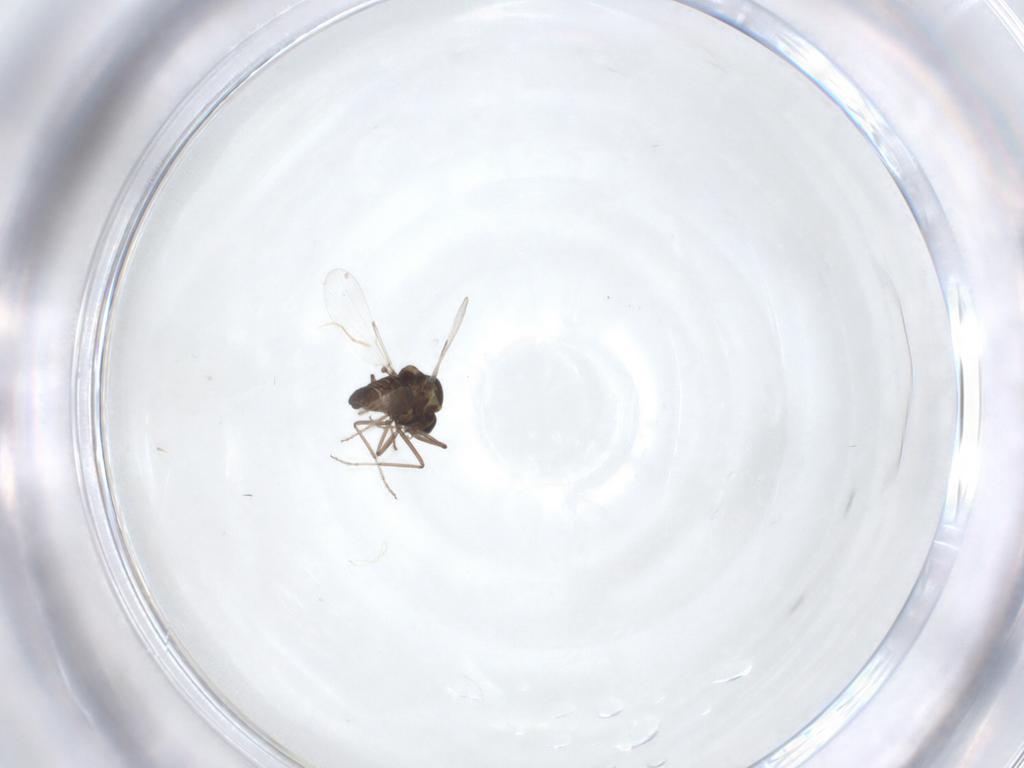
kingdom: Animalia
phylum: Arthropoda
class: Insecta
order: Diptera
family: Ceratopogonidae
